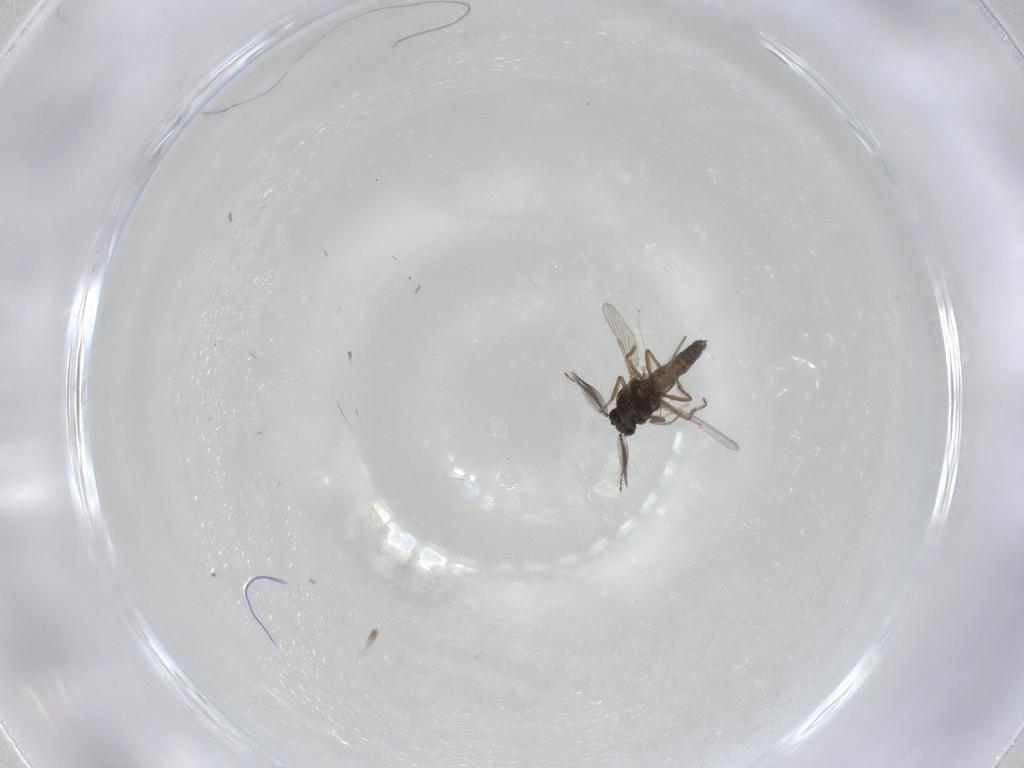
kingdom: Animalia
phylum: Arthropoda
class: Insecta
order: Diptera
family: Ceratopogonidae
